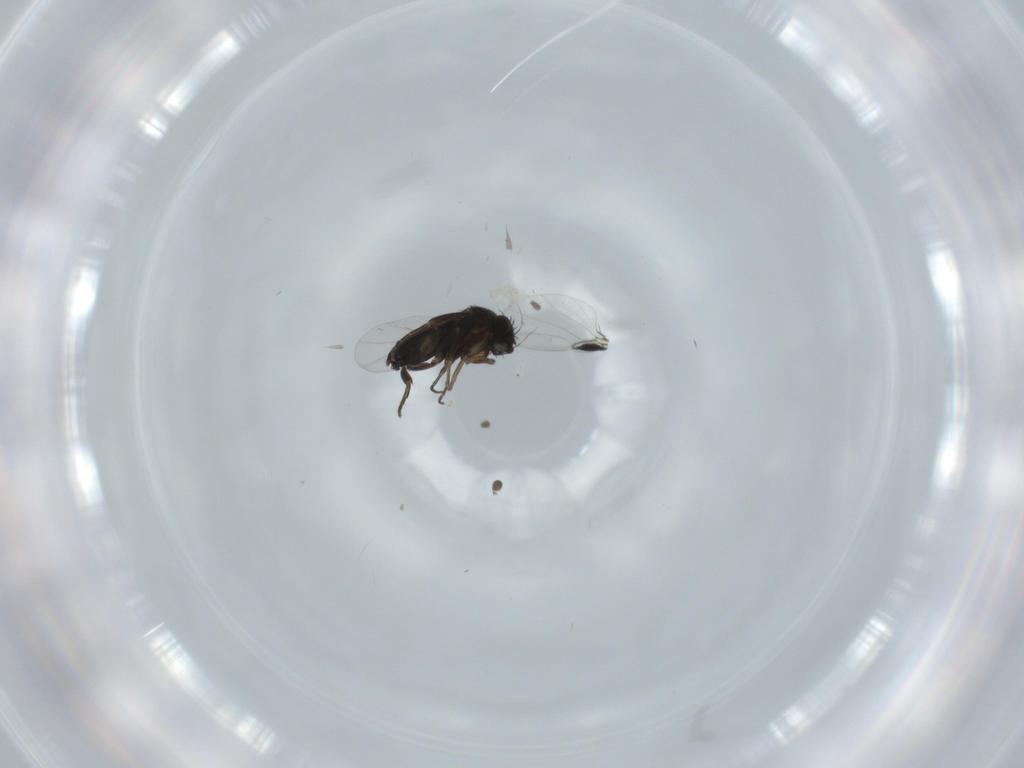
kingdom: Animalia
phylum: Arthropoda
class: Insecta
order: Diptera
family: Phoridae
